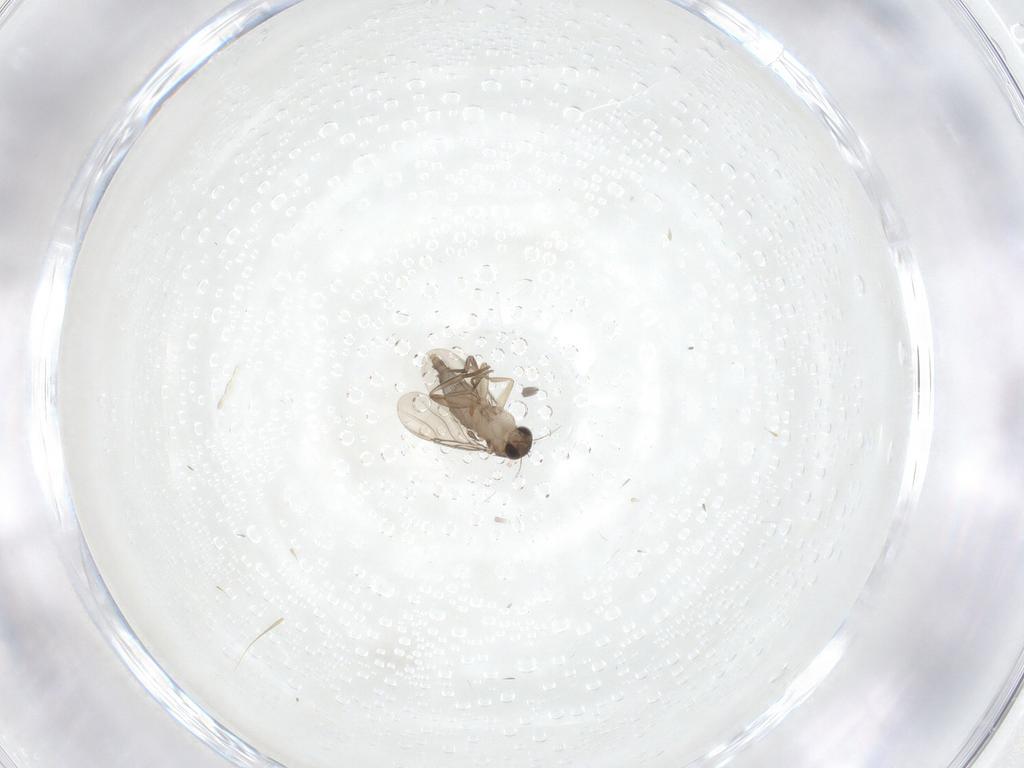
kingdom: Animalia
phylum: Arthropoda
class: Insecta
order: Diptera
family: Phoridae
